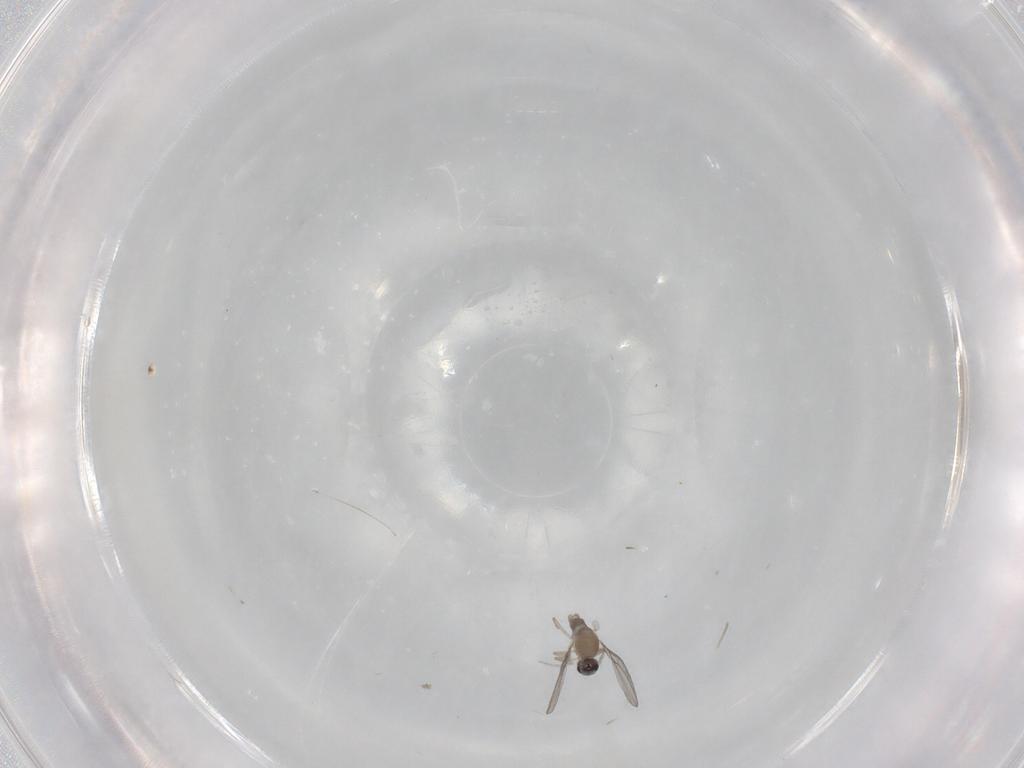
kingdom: Animalia
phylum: Arthropoda
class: Insecta
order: Diptera
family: Cecidomyiidae
